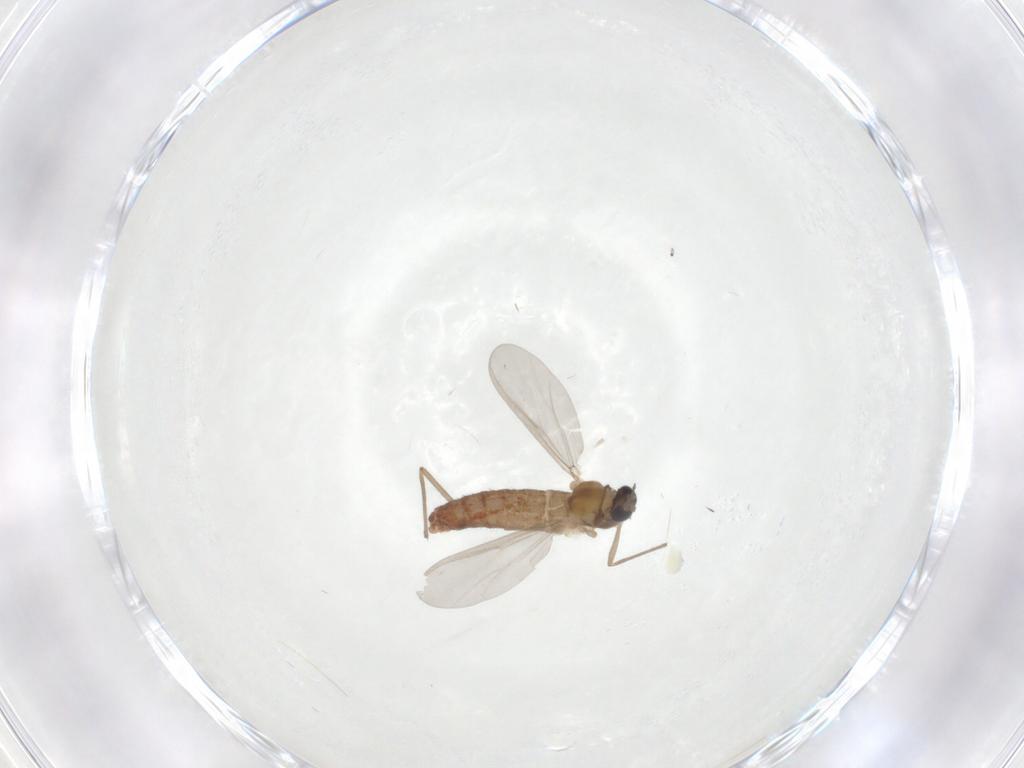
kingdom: Animalia
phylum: Arthropoda
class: Insecta
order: Diptera
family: Chironomidae
